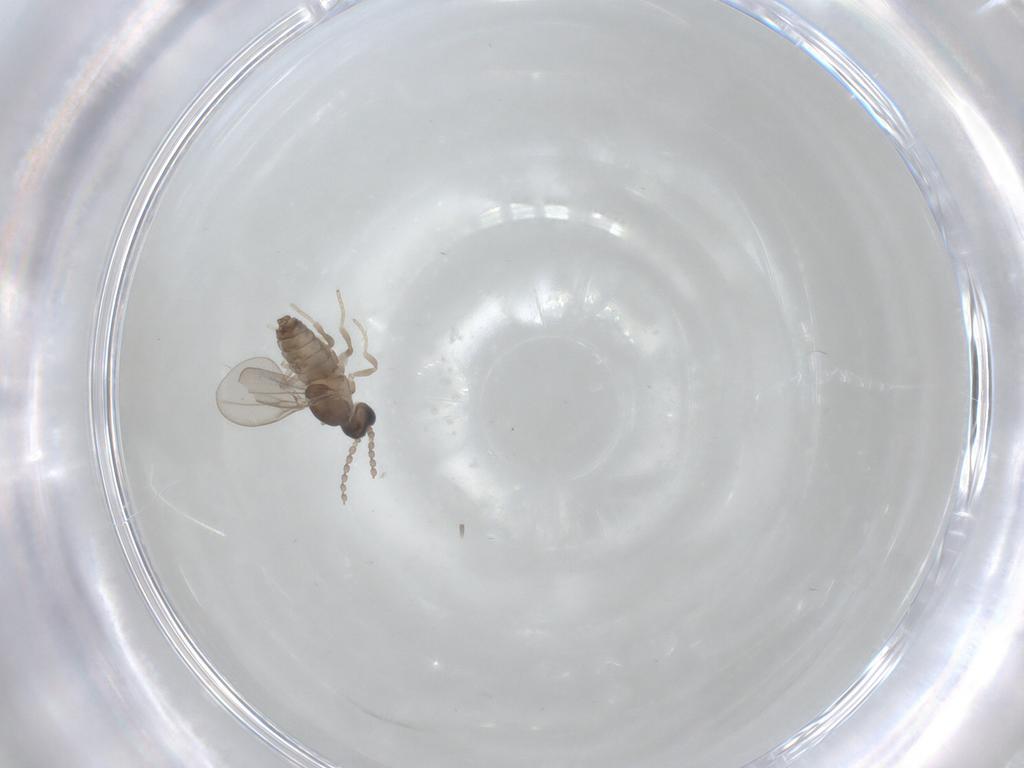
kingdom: Animalia
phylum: Arthropoda
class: Insecta
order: Diptera
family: Cecidomyiidae
